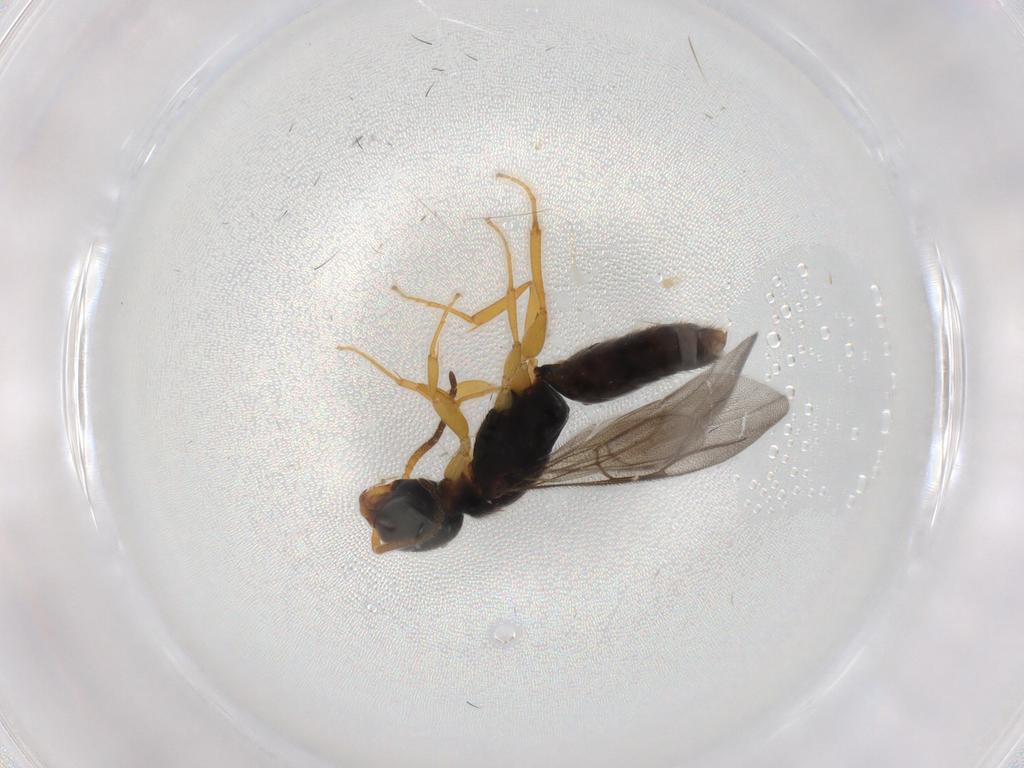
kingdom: Animalia
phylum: Arthropoda
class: Insecta
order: Hymenoptera
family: Bethylidae
